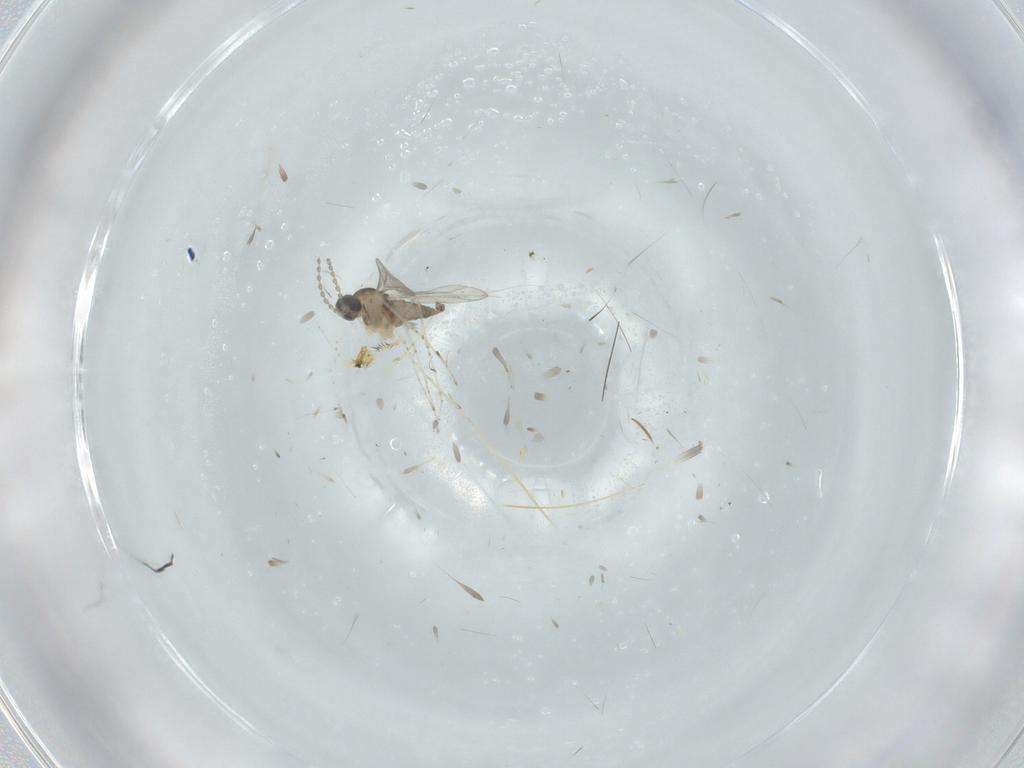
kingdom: Animalia
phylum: Arthropoda
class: Insecta
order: Diptera
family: Cecidomyiidae
